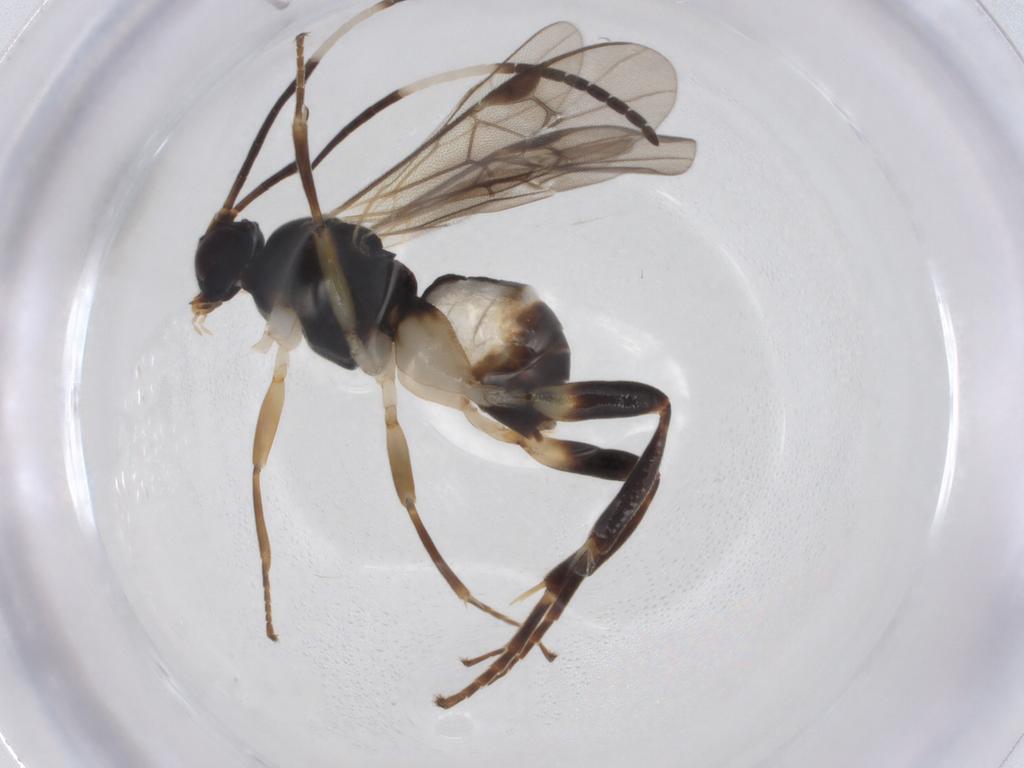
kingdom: Animalia
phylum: Arthropoda
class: Insecta
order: Hymenoptera
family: Braconidae
